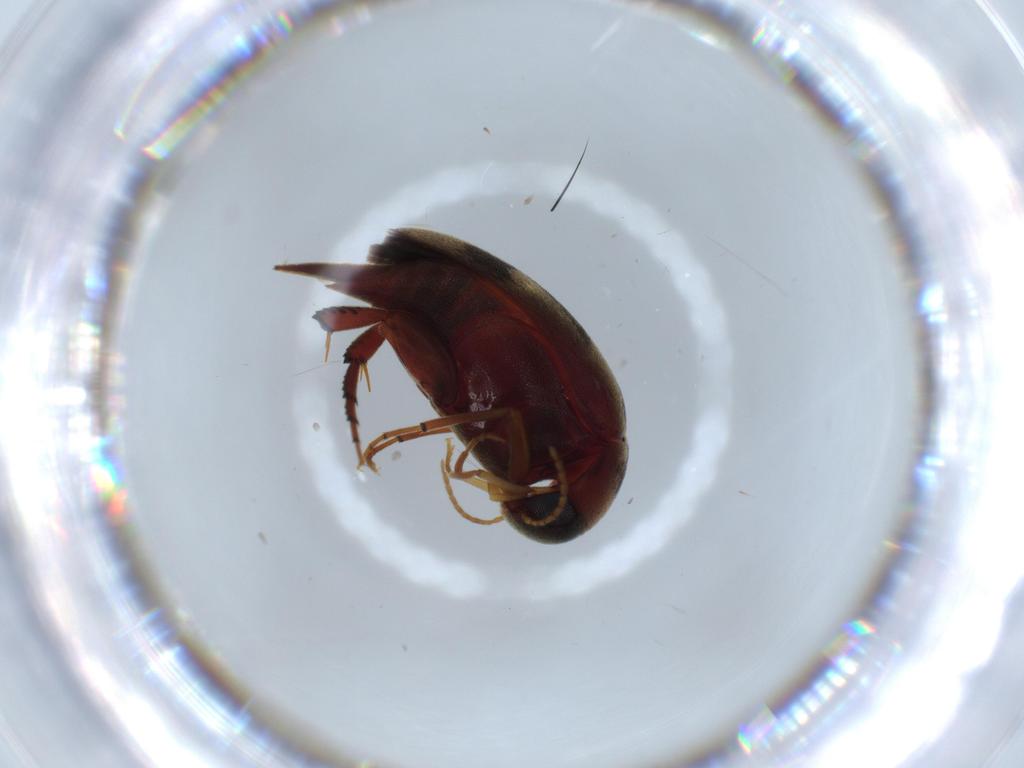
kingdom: Animalia
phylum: Arthropoda
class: Insecta
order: Coleoptera
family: Mordellidae
